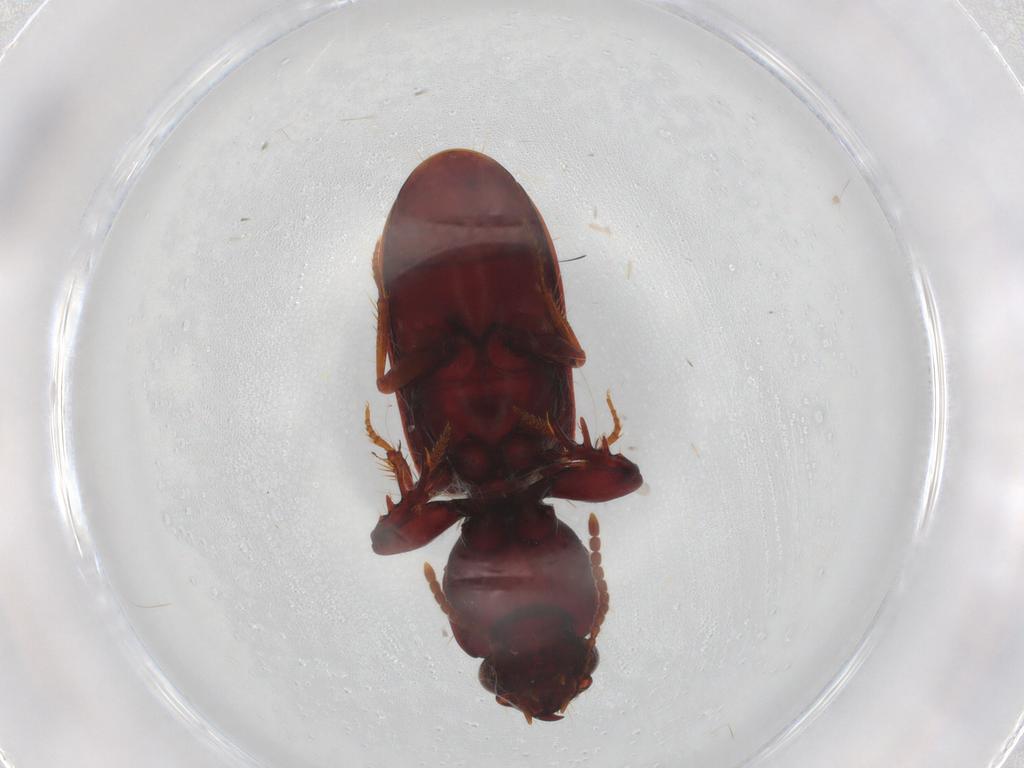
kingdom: Animalia
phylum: Arthropoda
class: Insecta
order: Coleoptera
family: Carabidae
